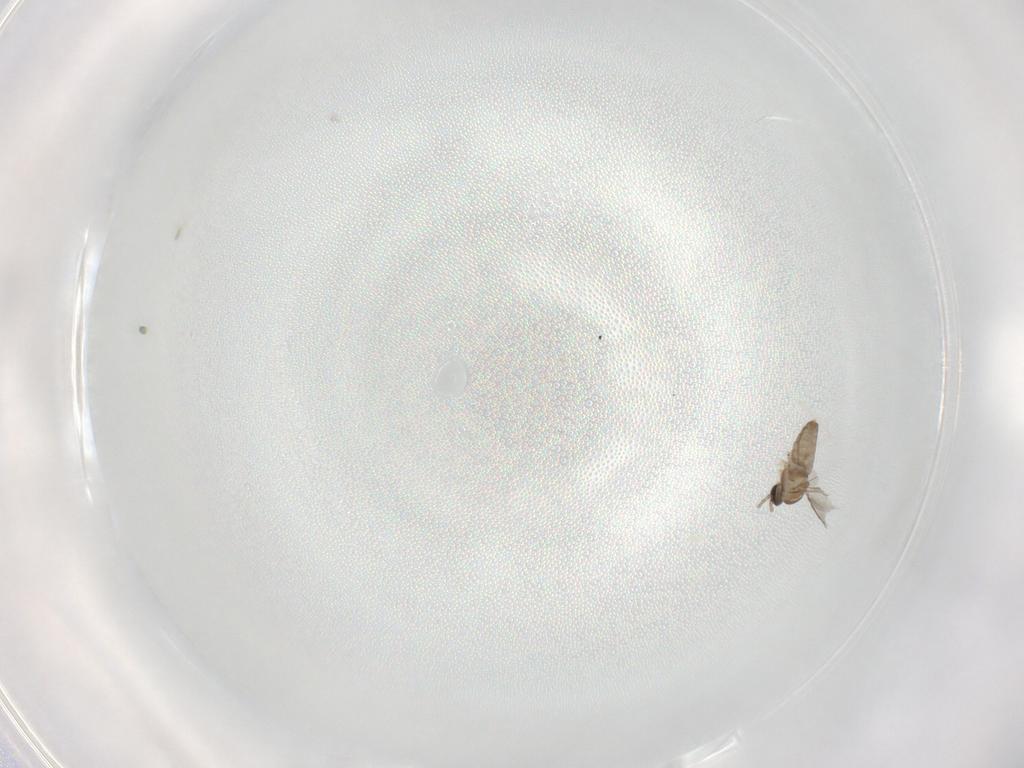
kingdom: Animalia
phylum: Arthropoda
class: Insecta
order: Diptera
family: Cecidomyiidae
